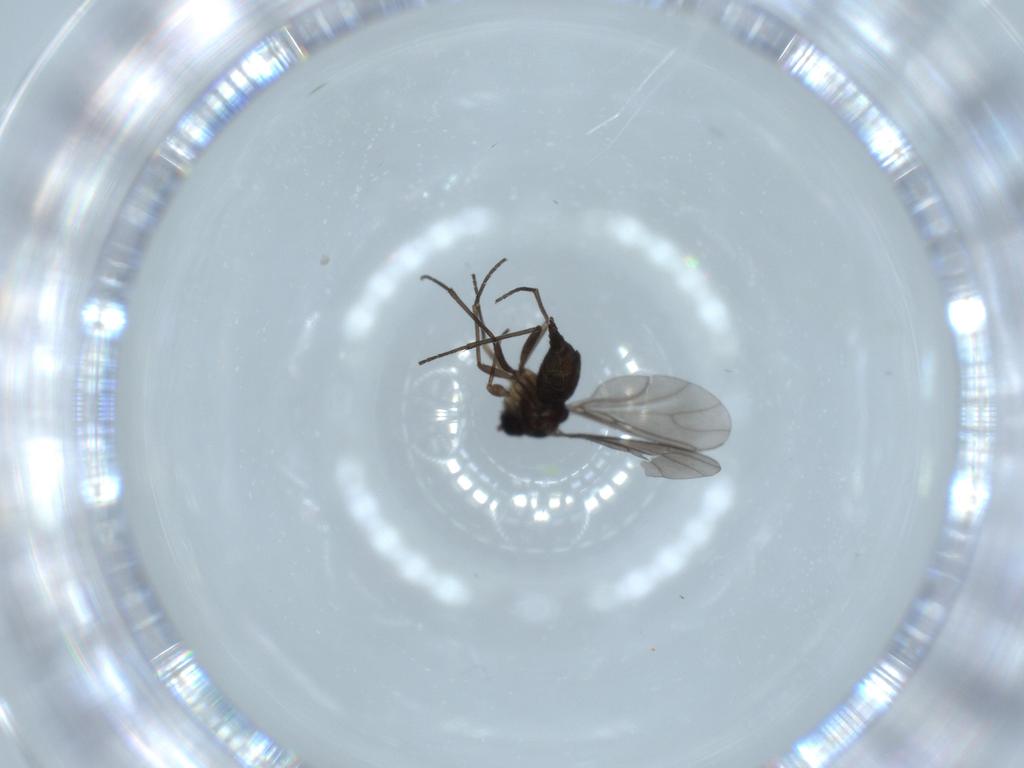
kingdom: Animalia
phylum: Arthropoda
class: Insecta
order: Diptera
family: Sciaridae
